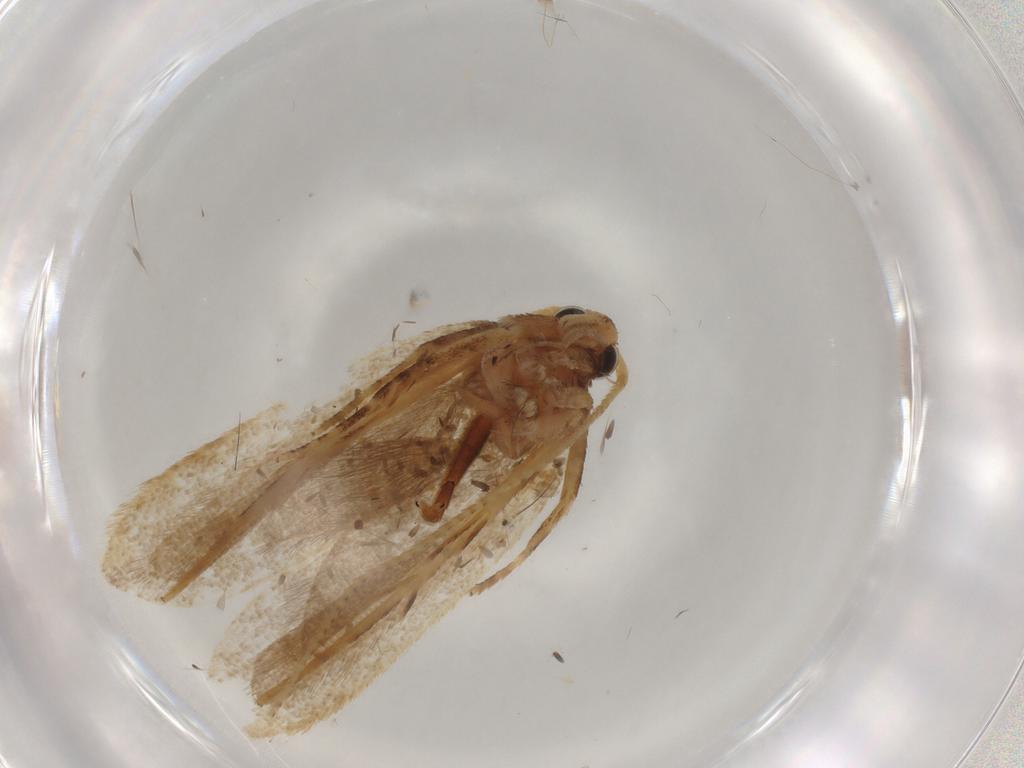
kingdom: Animalia
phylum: Arthropoda
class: Insecta
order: Lepidoptera
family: Lecithoceridae
